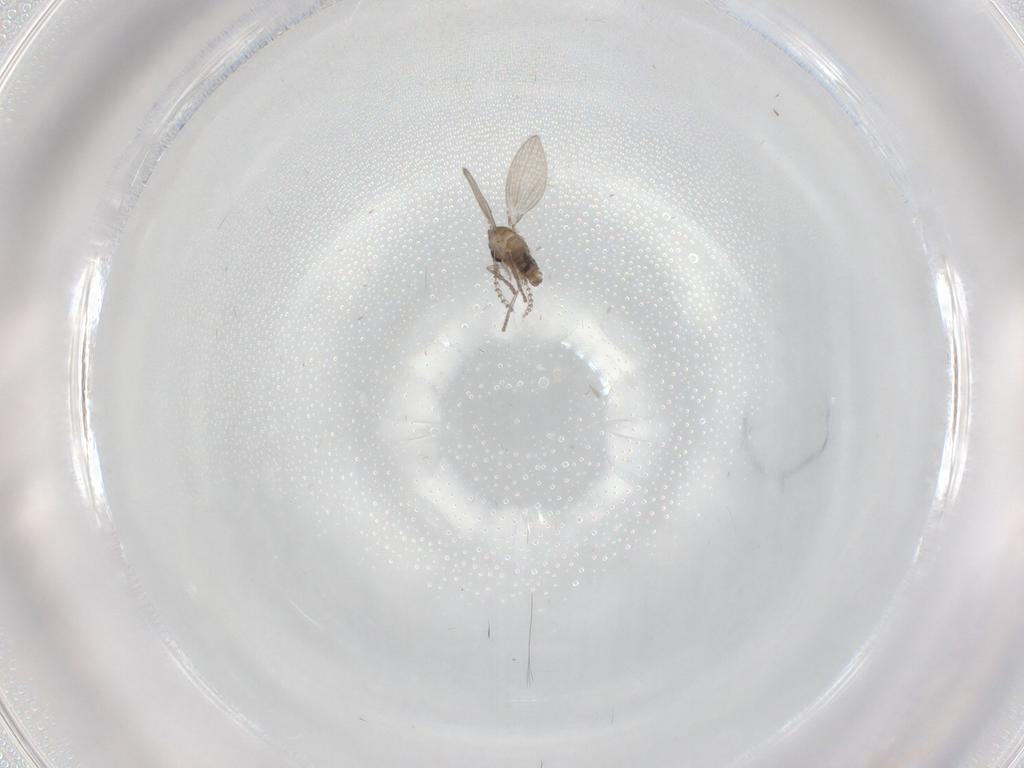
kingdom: Animalia
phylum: Arthropoda
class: Insecta
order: Diptera
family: Psychodidae
